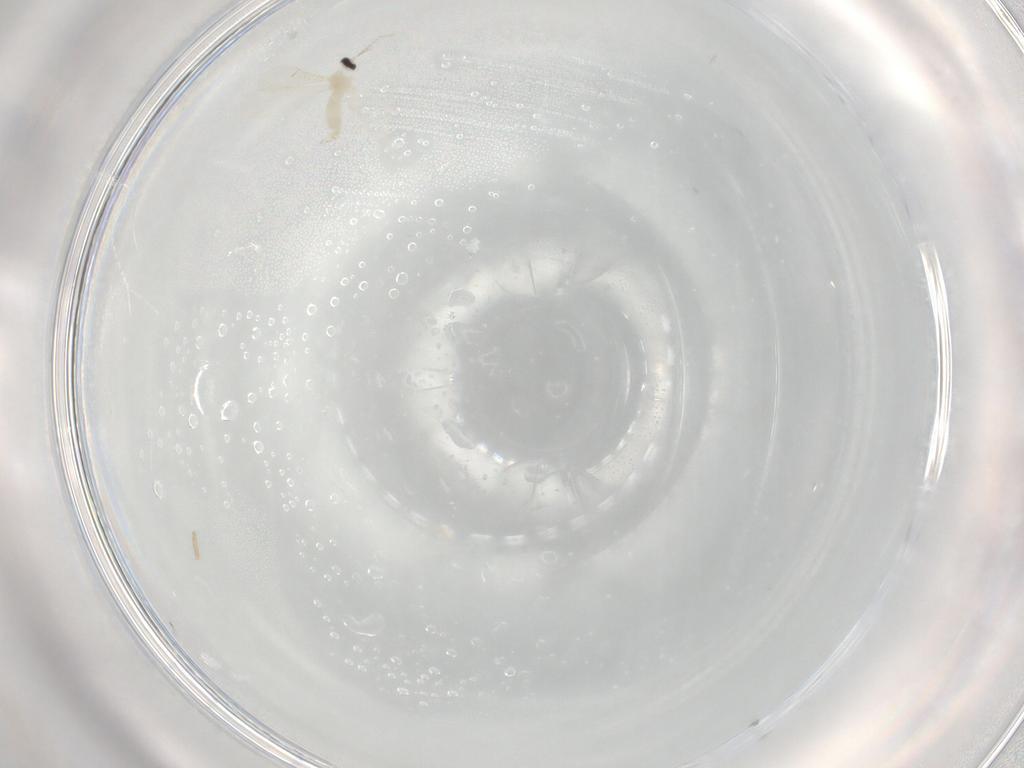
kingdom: Animalia
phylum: Arthropoda
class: Insecta
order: Diptera
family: Cecidomyiidae
